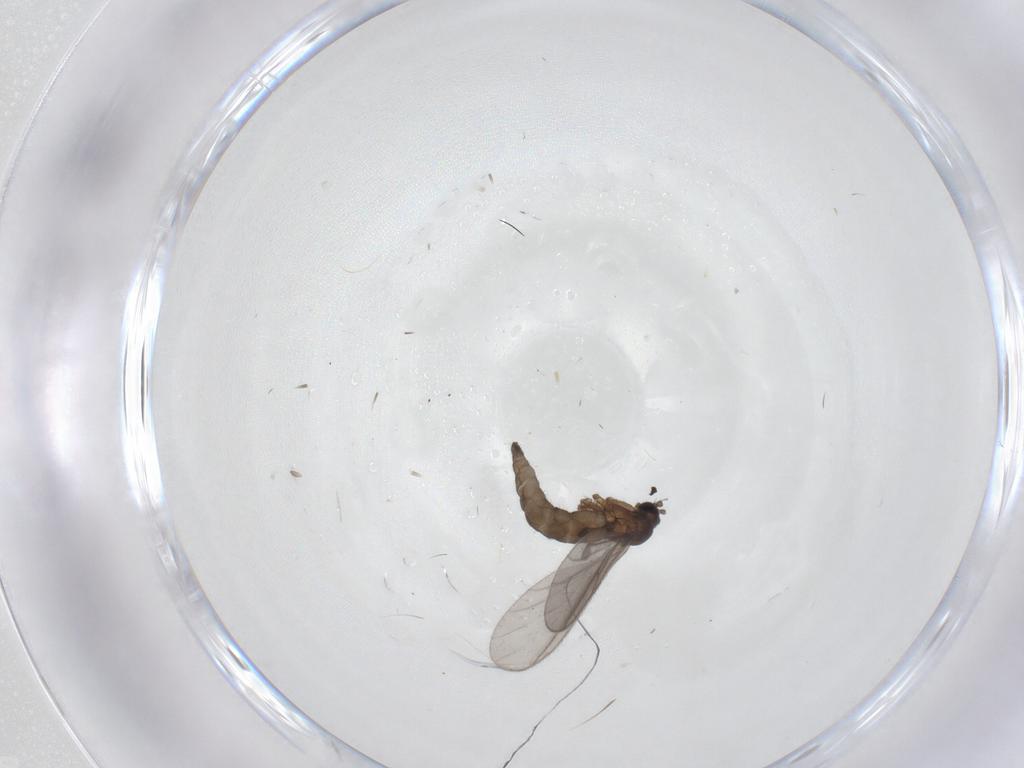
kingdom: Animalia
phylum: Arthropoda
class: Insecta
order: Diptera
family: Sciaridae
